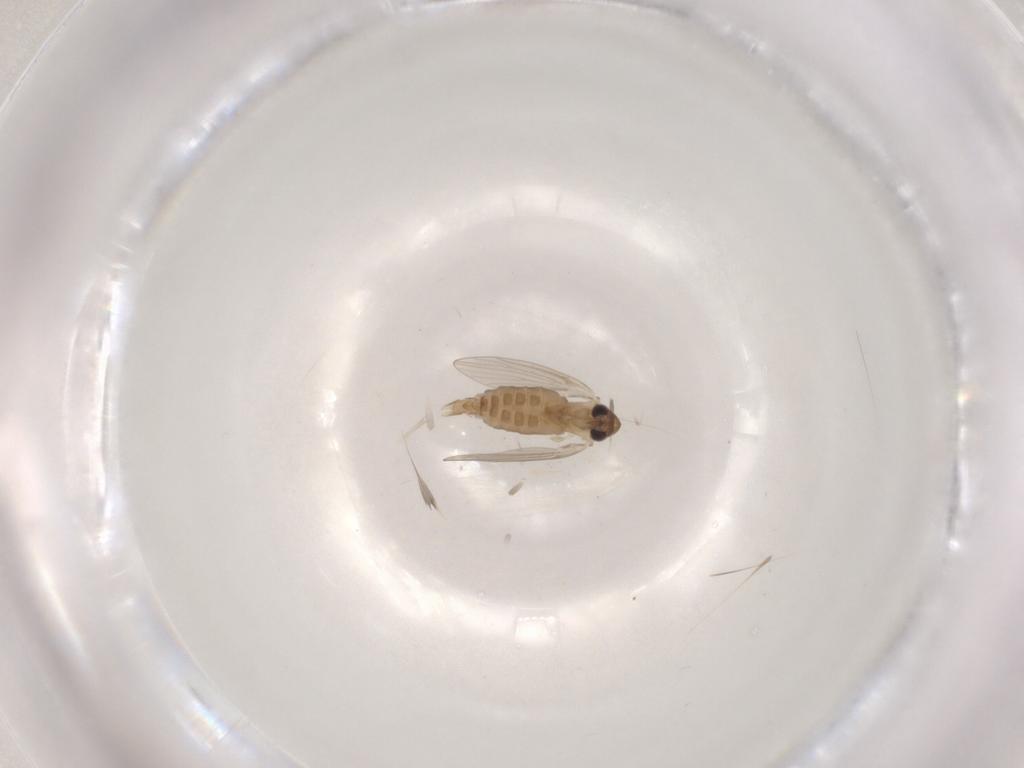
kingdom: Animalia
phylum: Arthropoda
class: Insecta
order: Diptera
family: Psychodidae
